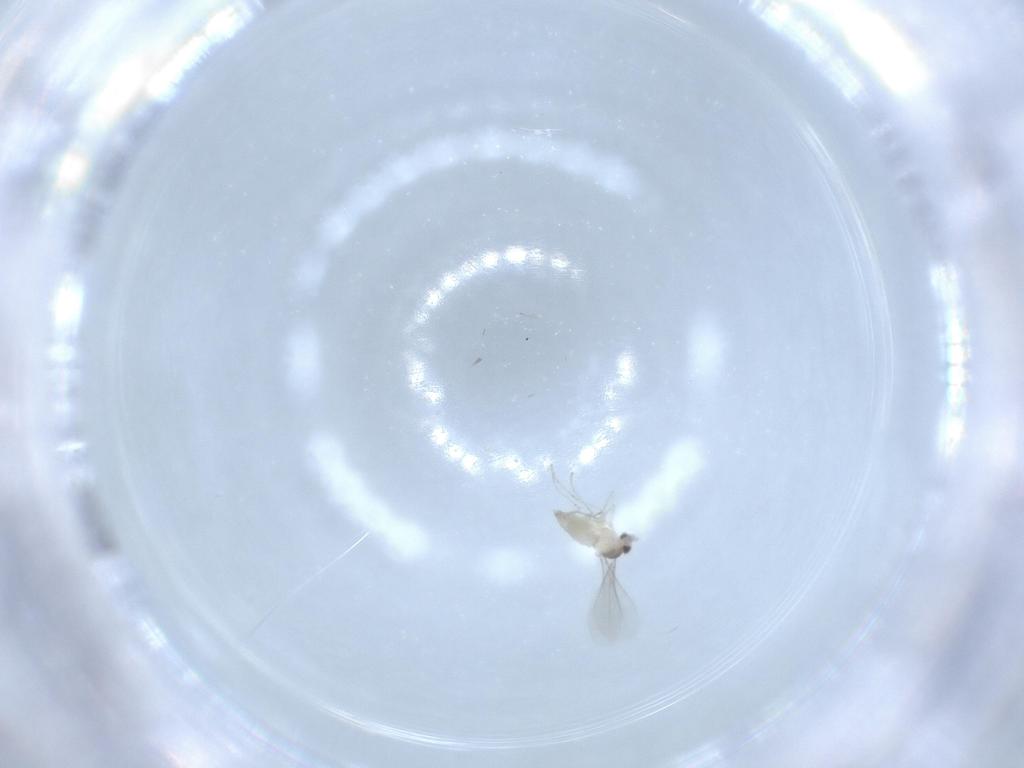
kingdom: Animalia
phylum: Arthropoda
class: Insecta
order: Diptera
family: Cecidomyiidae
